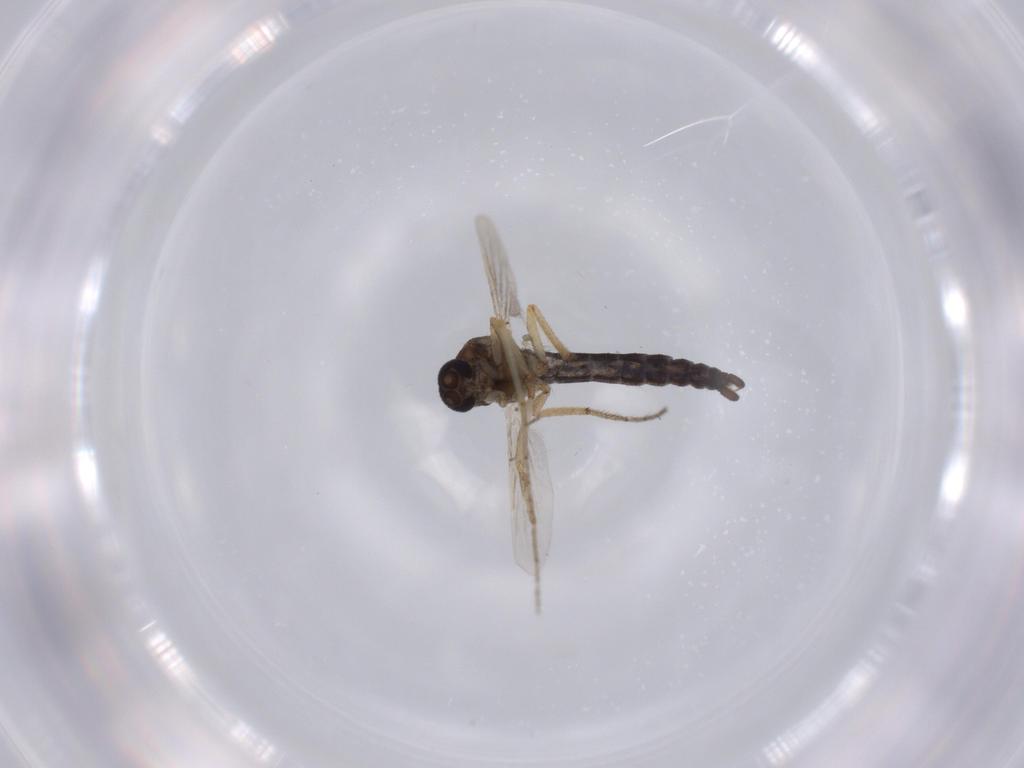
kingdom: Animalia
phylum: Arthropoda
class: Insecta
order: Diptera
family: Ceratopogonidae
